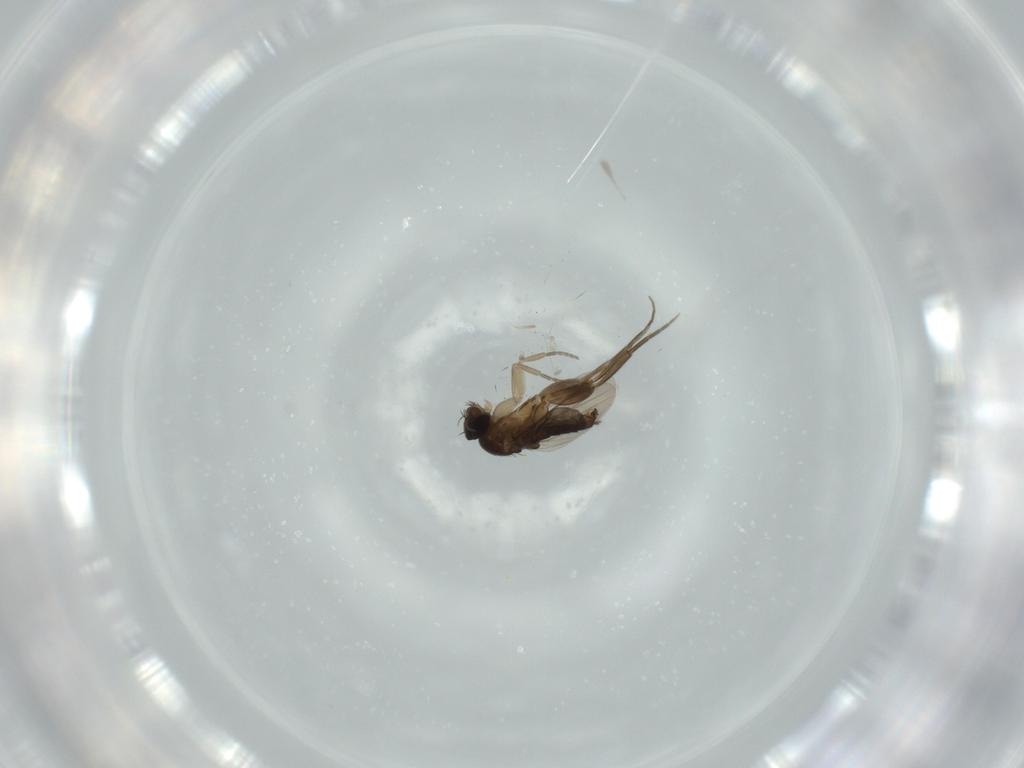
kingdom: Animalia
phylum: Arthropoda
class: Insecta
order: Diptera
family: Phoridae
